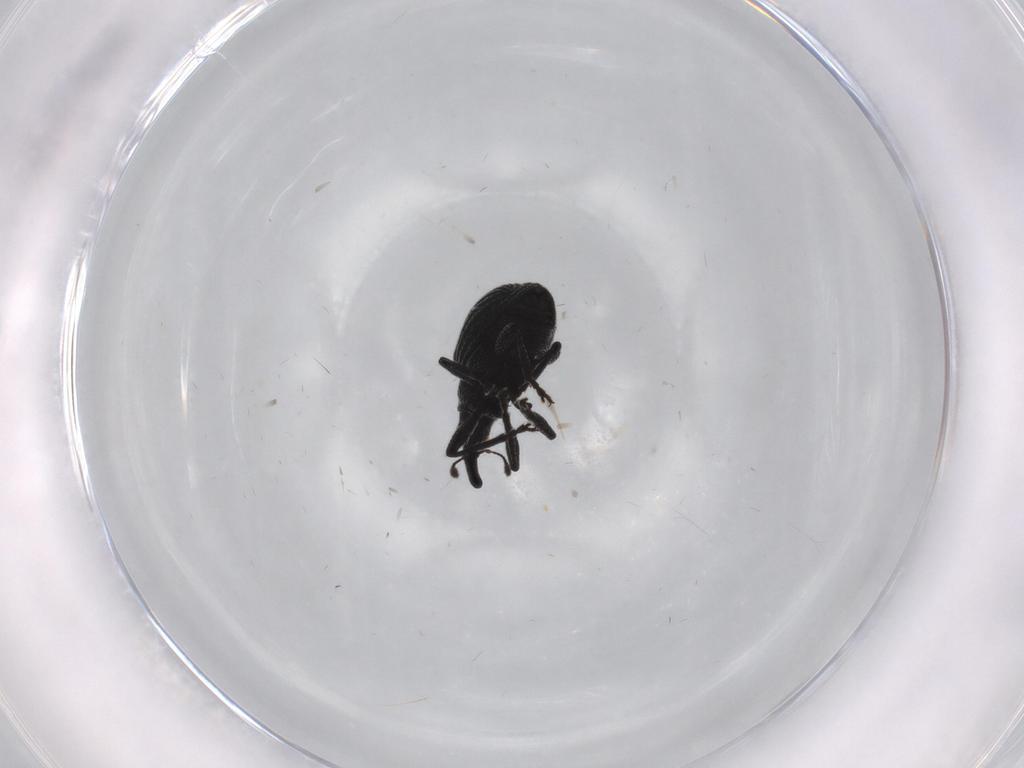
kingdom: Animalia
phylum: Arthropoda
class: Insecta
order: Coleoptera
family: Brentidae
